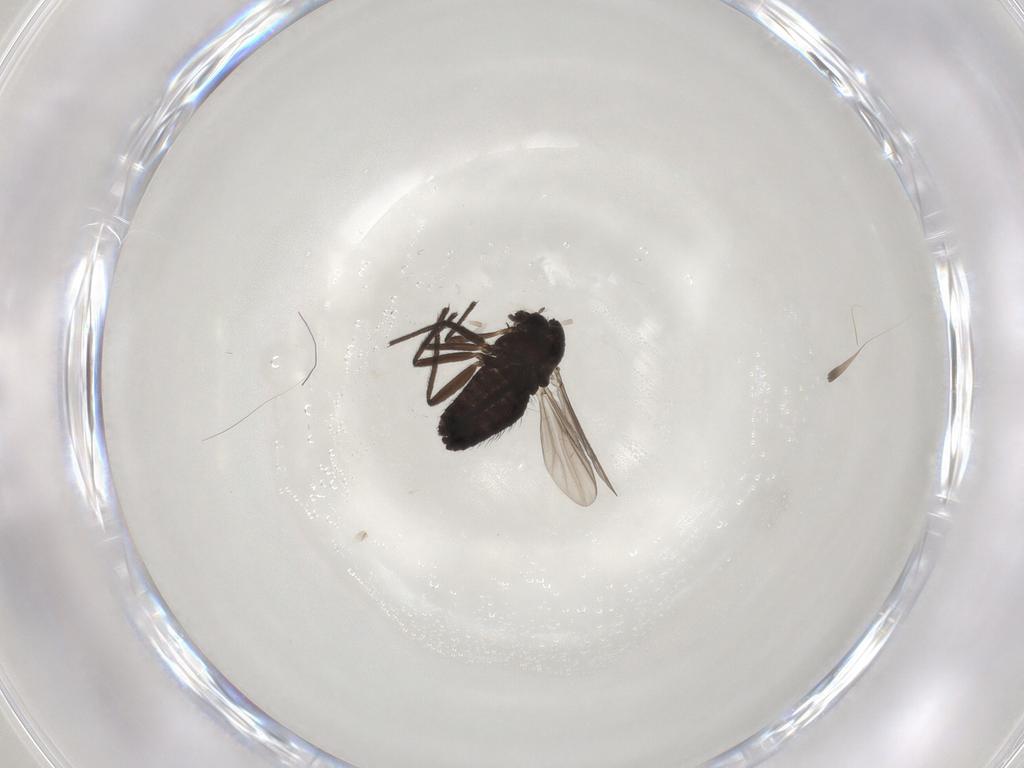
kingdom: Animalia
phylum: Arthropoda
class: Insecta
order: Diptera
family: Chironomidae
